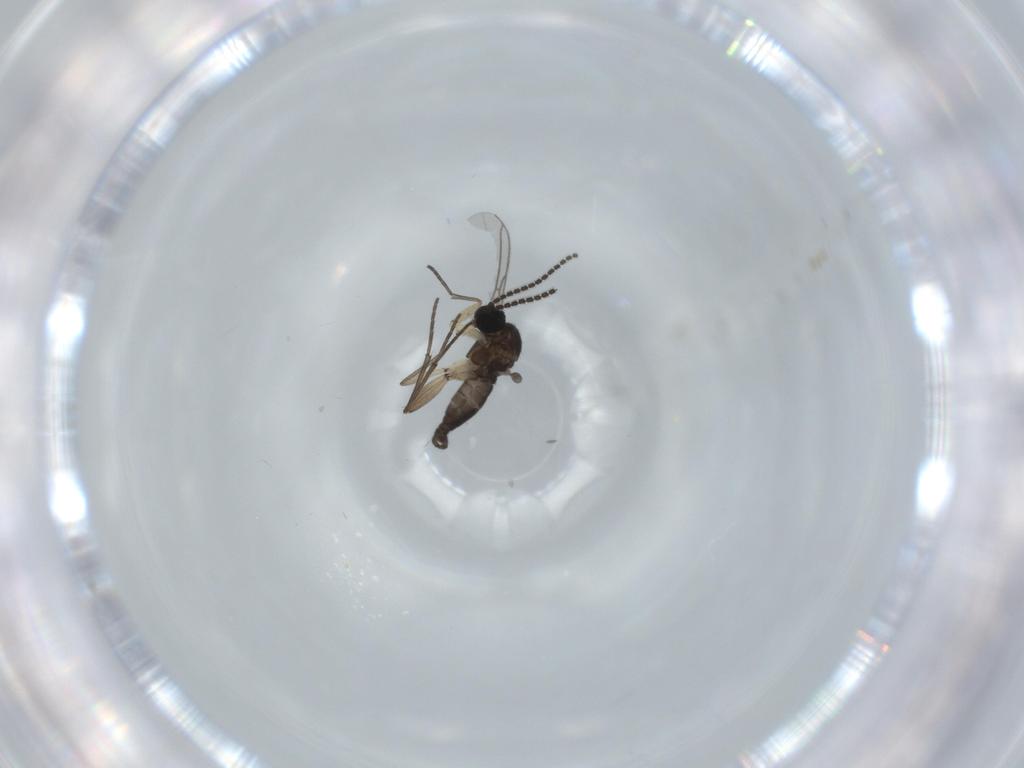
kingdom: Animalia
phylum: Arthropoda
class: Insecta
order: Diptera
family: Sciaridae
